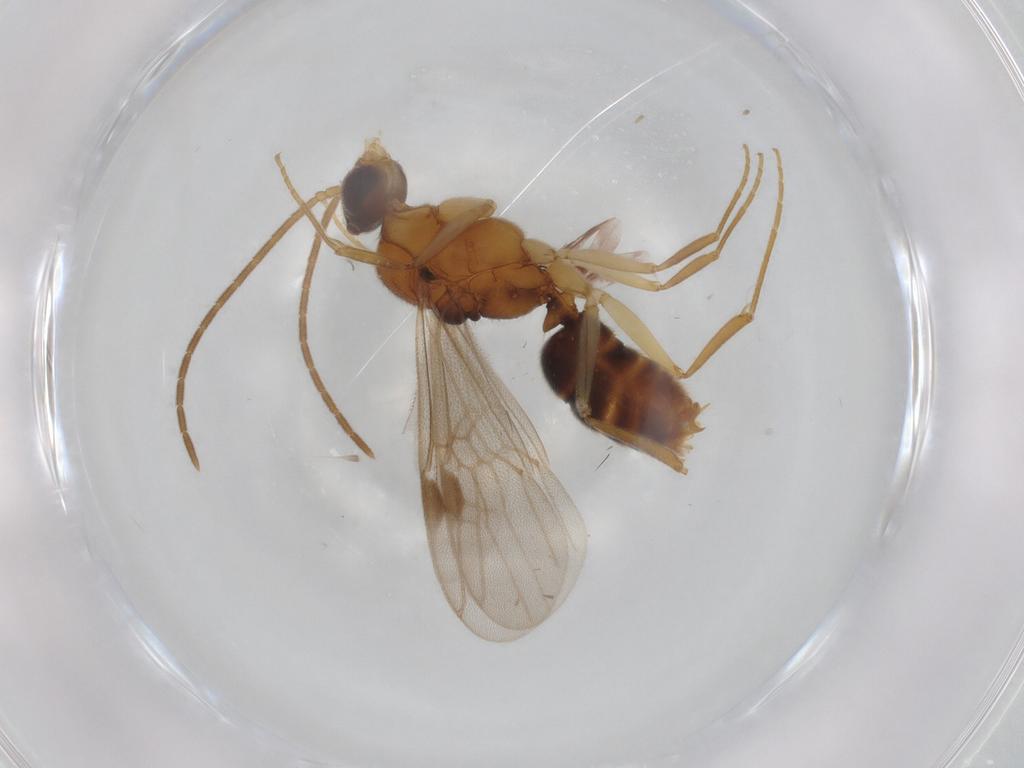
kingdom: Animalia
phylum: Arthropoda
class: Insecta
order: Hymenoptera
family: Formicidae
